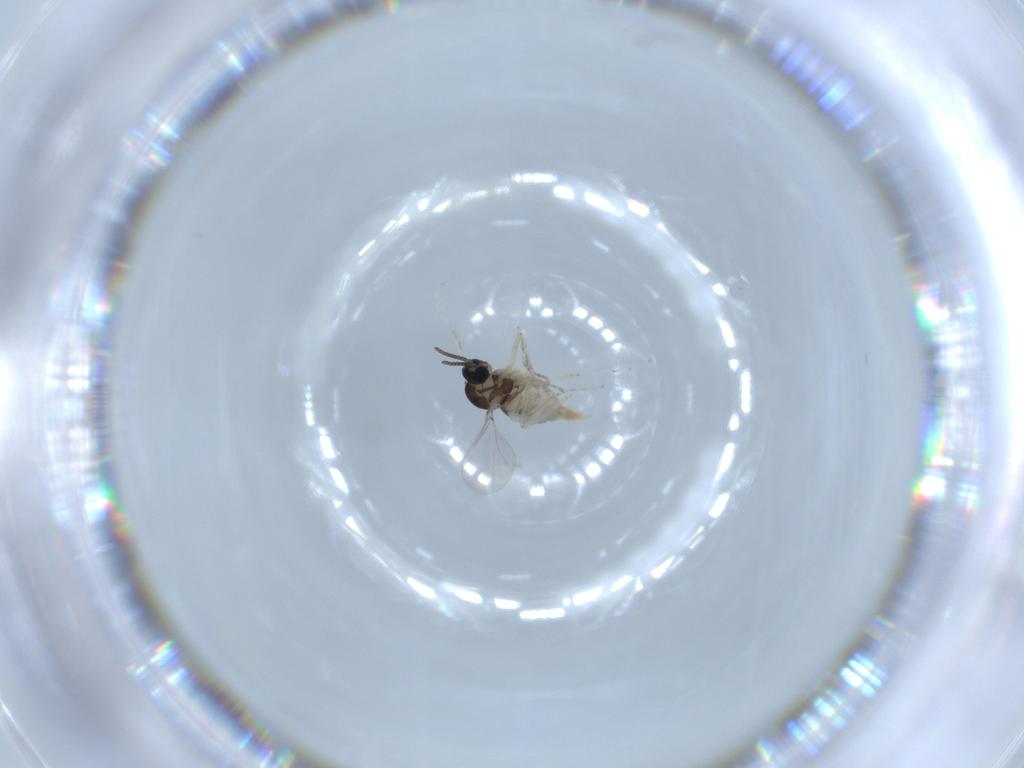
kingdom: Animalia
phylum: Arthropoda
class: Insecta
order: Diptera
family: Cecidomyiidae
